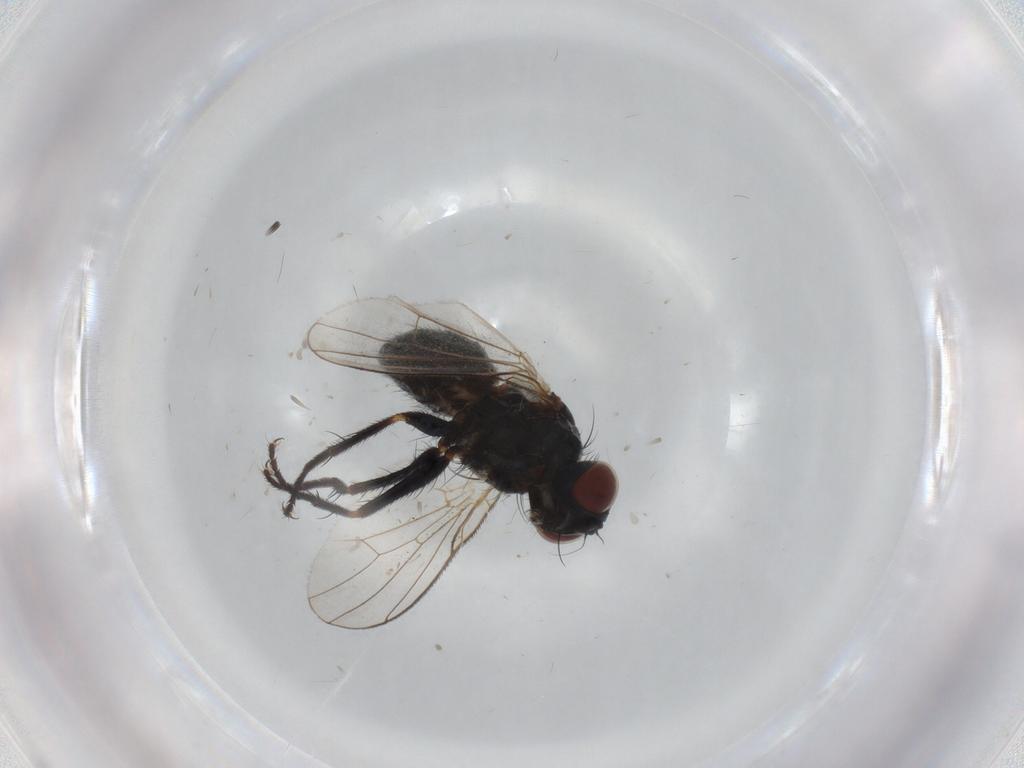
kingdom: Animalia
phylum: Arthropoda
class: Insecta
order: Diptera
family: Muscidae
